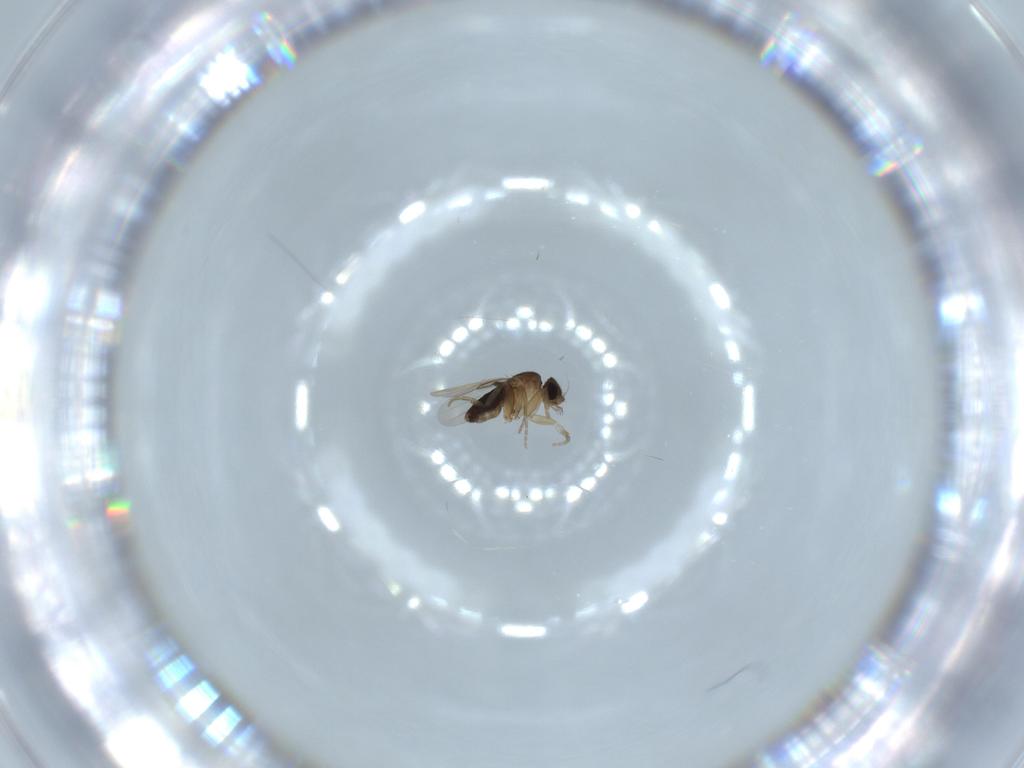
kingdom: Animalia
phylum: Arthropoda
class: Insecta
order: Diptera
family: Phoridae
